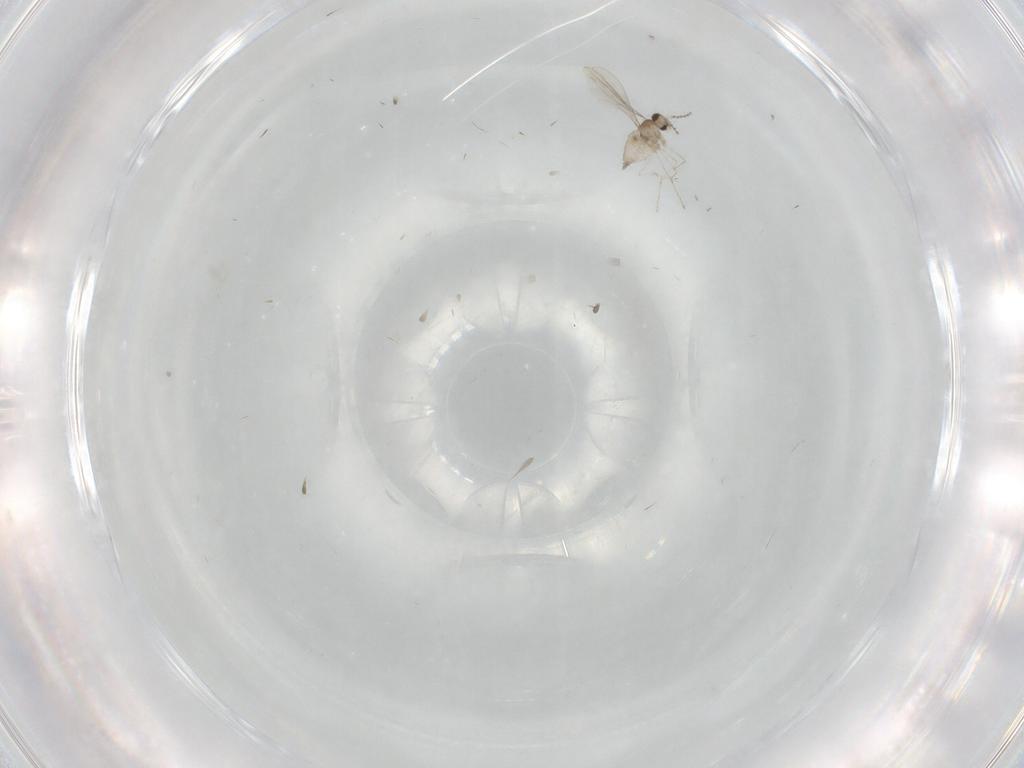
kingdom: Animalia
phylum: Arthropoda
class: Insecta
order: Diptera
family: Cecidomyiidae
